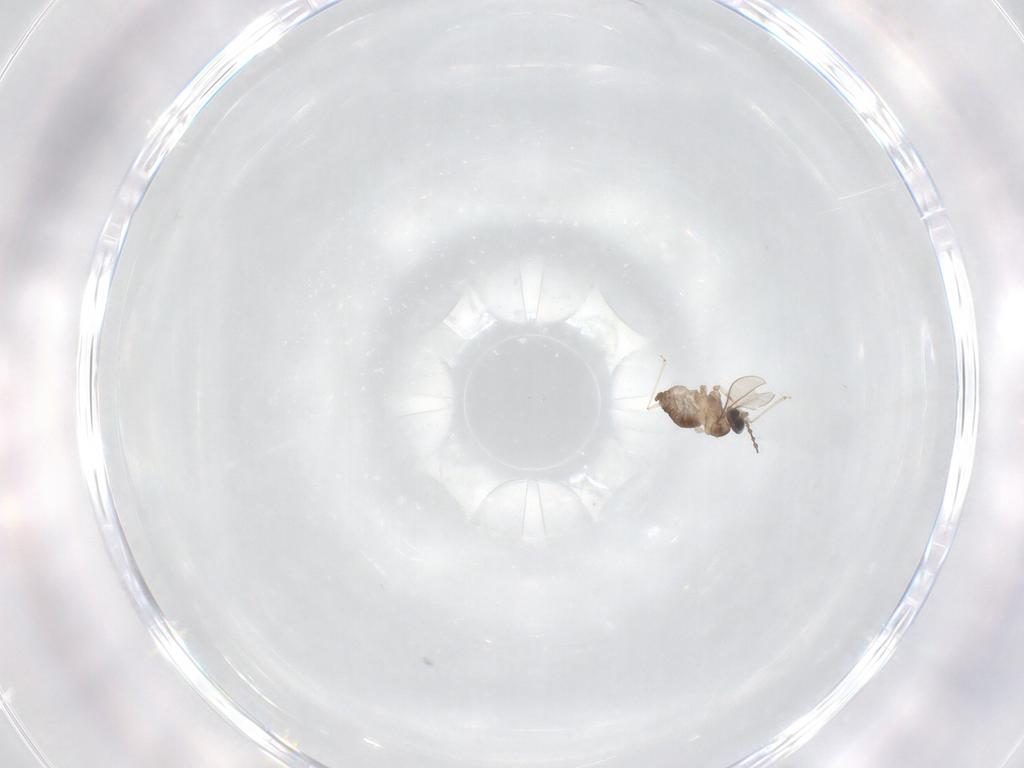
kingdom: Animalia
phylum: Arthropoda
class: Insecta
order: Diptera
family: Cecidomyiidae
